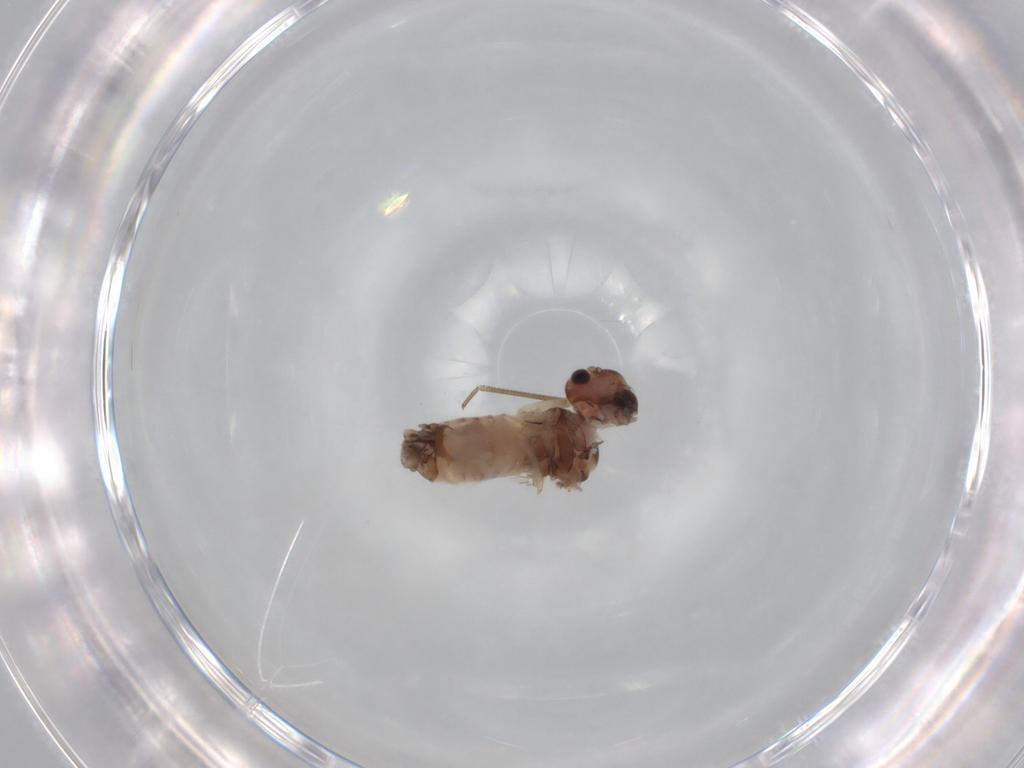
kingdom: Animalia
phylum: Arthropoda
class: Insecta
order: Psocodea
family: Peripsocidae
